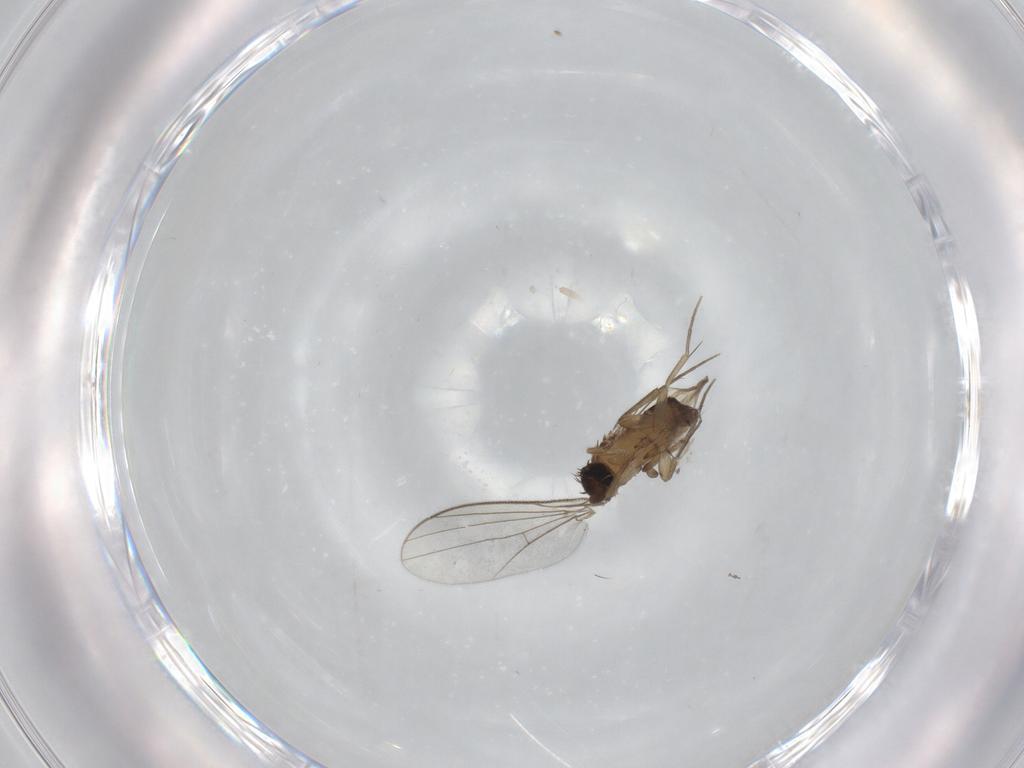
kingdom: Animalia
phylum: Arthropoda
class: Insecta
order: Diptera
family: Phoridae
